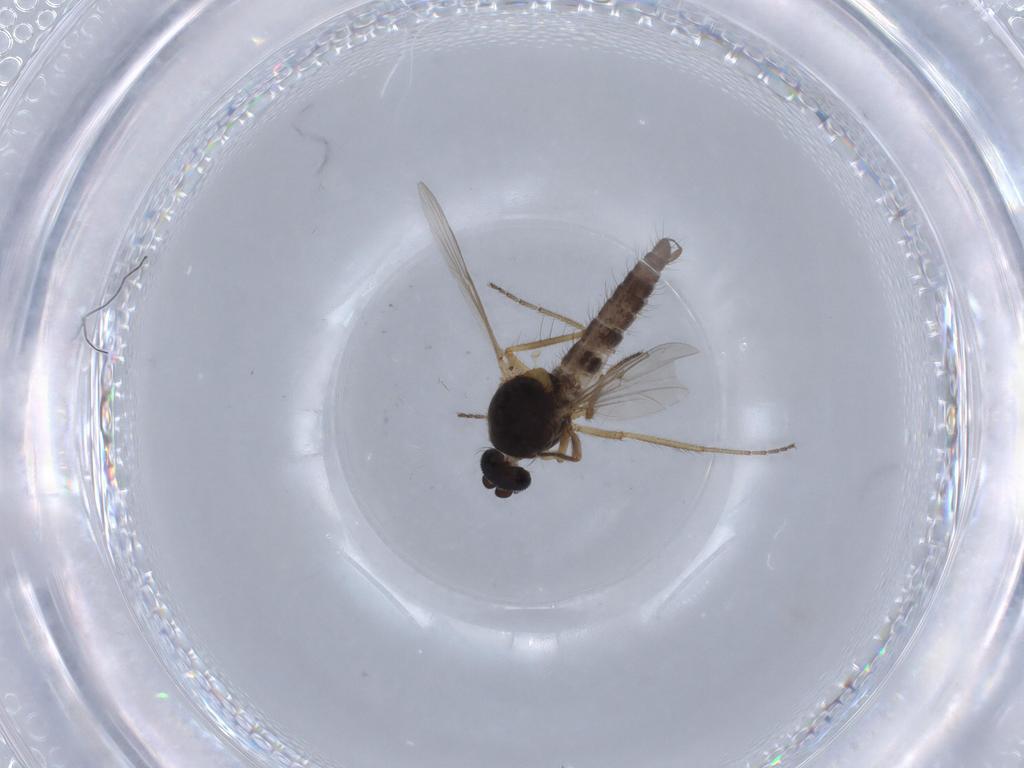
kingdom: Animalia
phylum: Arthropoda
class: Insecta
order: Diptera
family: Ceratopogonidae
